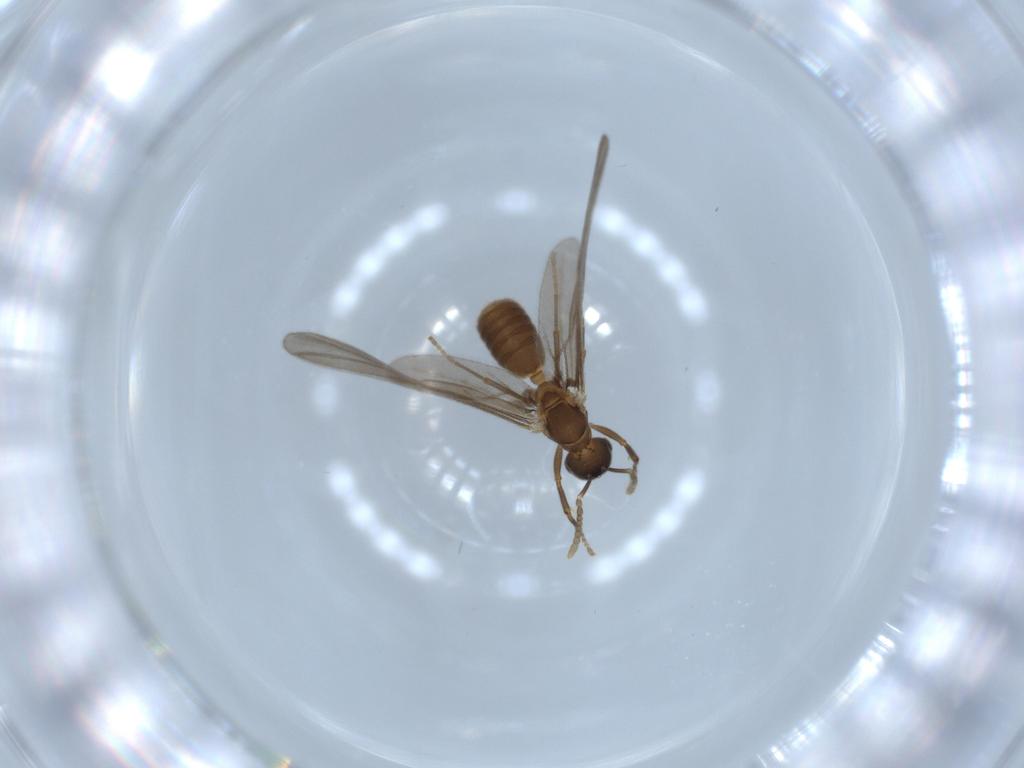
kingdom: Animalia
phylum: Arthropoda
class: Insecta
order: Hymenoptera
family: Formicidae
